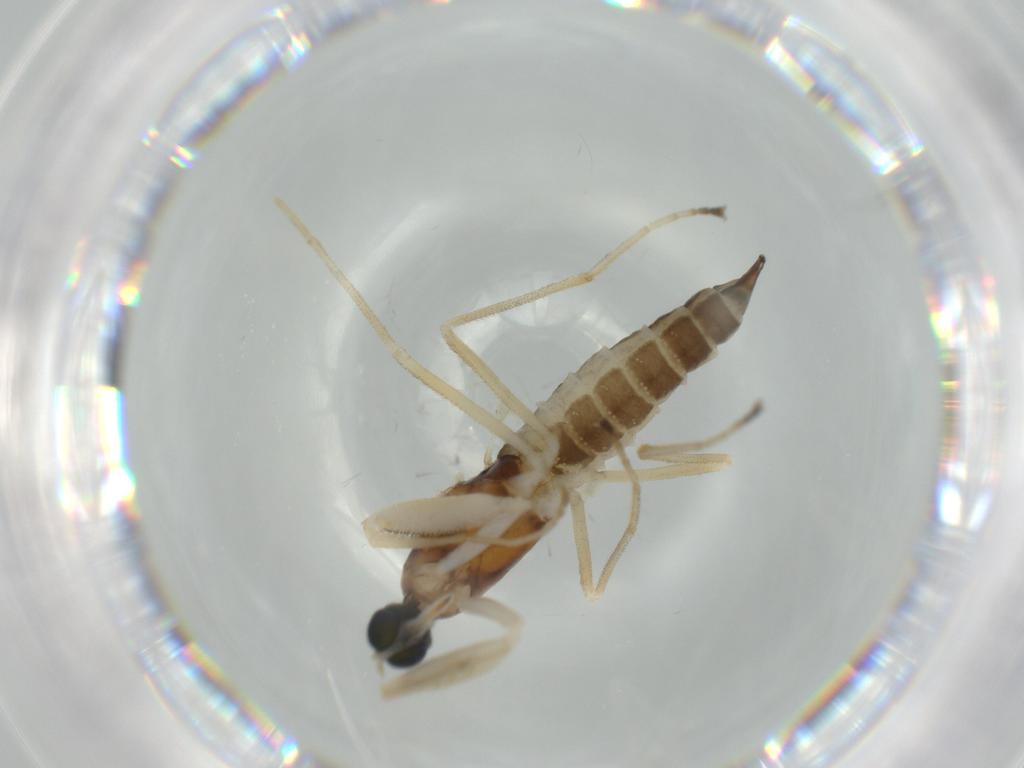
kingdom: Animalia
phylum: Arthropoda
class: Insecta
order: Diptera
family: Empididae
